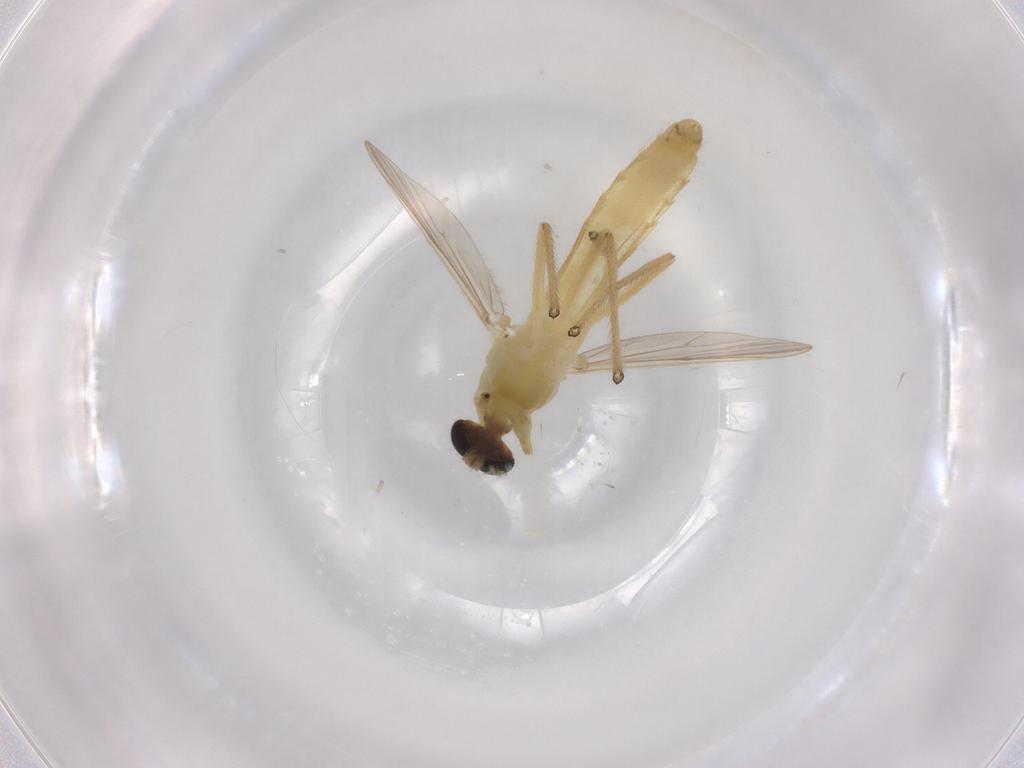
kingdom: Animalia
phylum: Arthropoda
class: Insecta
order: Diptera
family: Chironomidae
